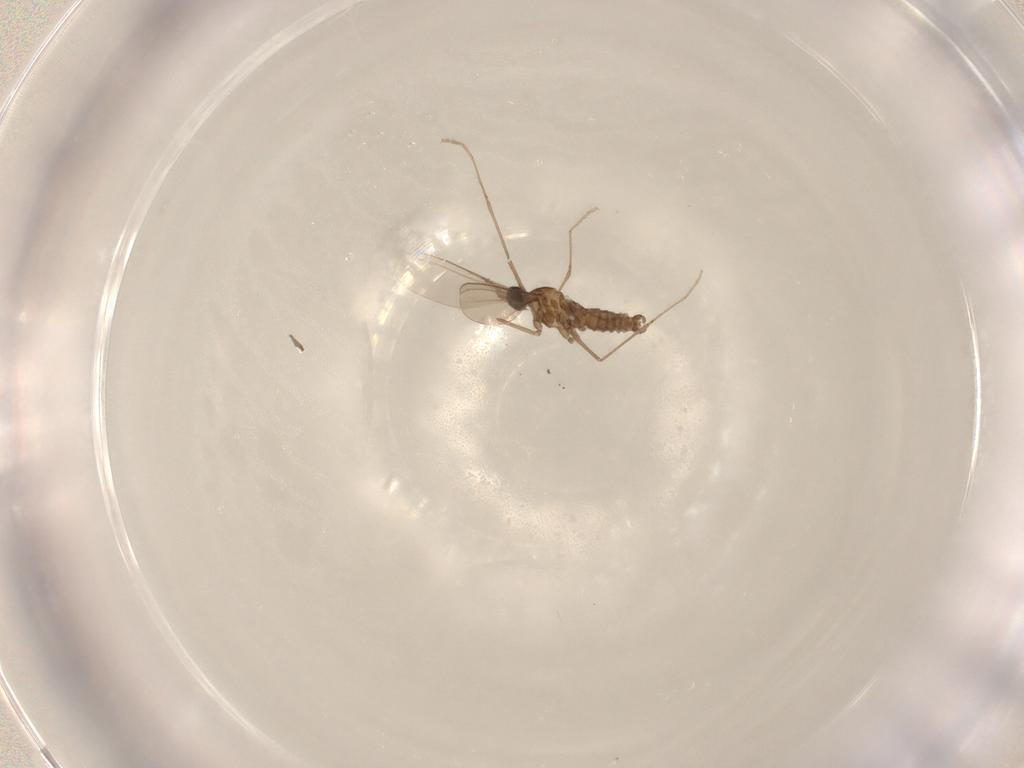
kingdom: Animalia
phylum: Arthropoda
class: Insecta
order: Diptera
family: Cecidomyiidae
